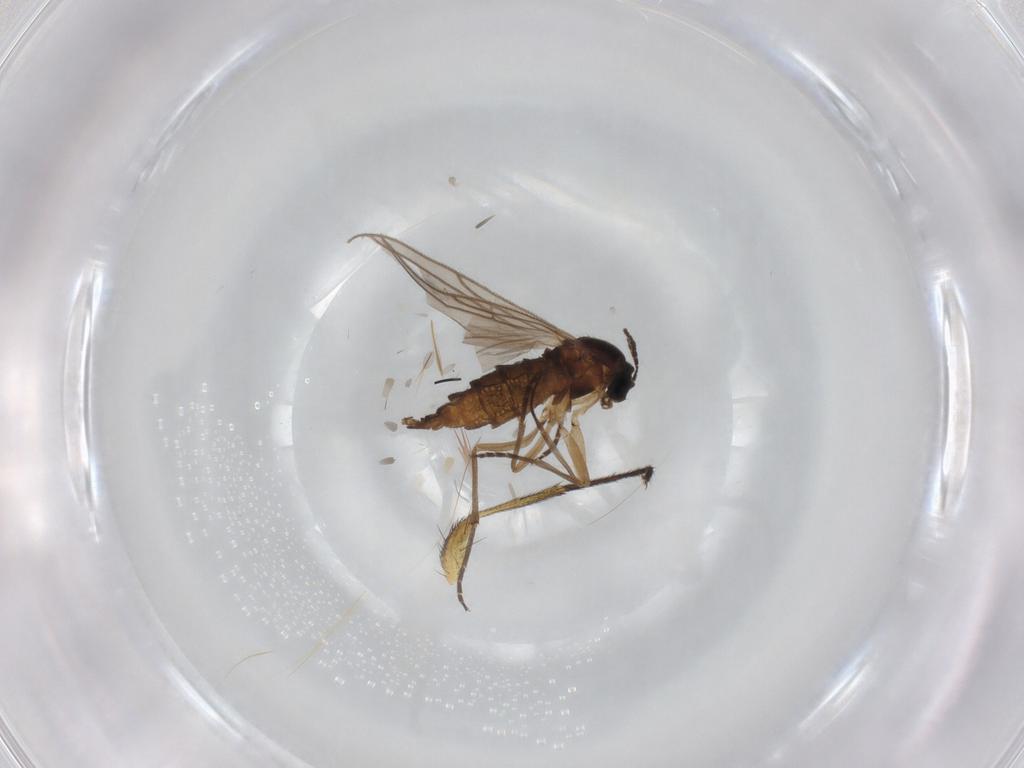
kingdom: Animalia
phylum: Arthropoda
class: Insecta
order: Diptera
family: Sciaridae
